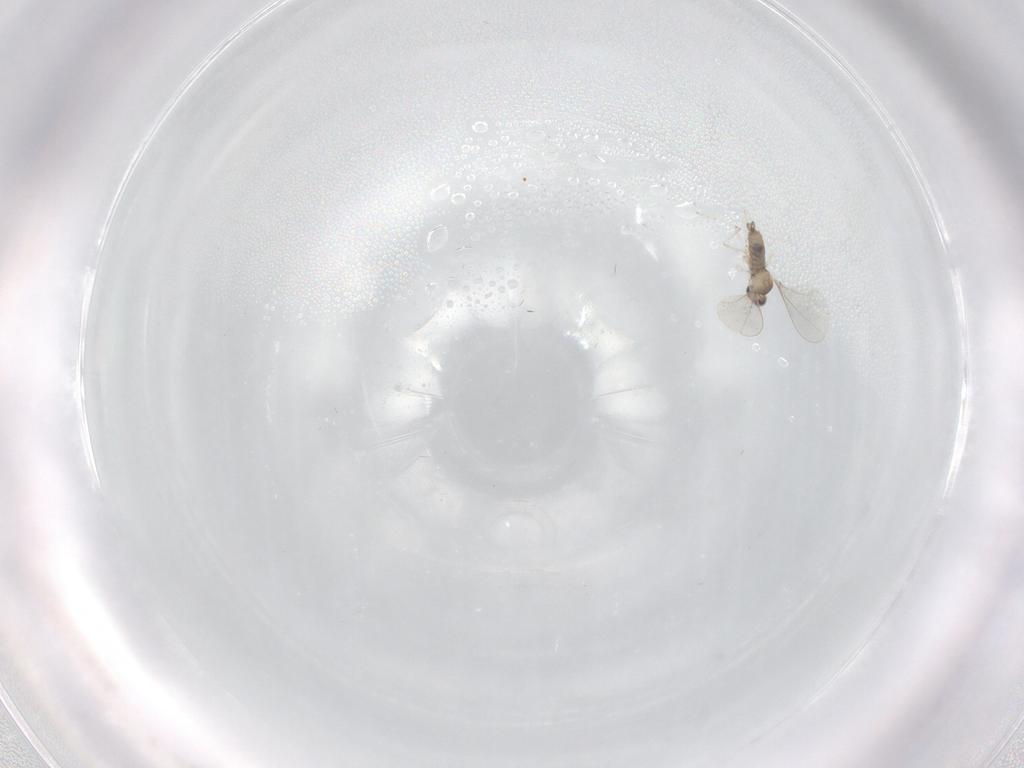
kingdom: Animalia
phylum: Arthropoda
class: Insecta
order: Diptera
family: Cecidomyiidae
